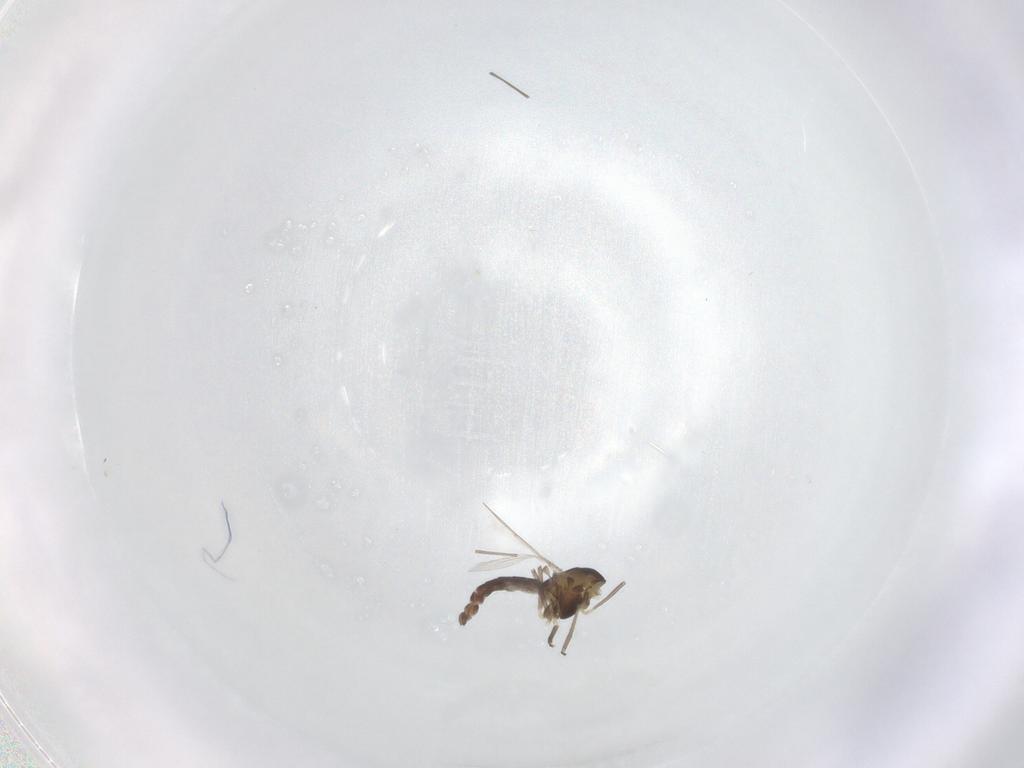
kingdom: Animalia
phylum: Arthropoda
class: Insecta
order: Diptera
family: Chironomidae
